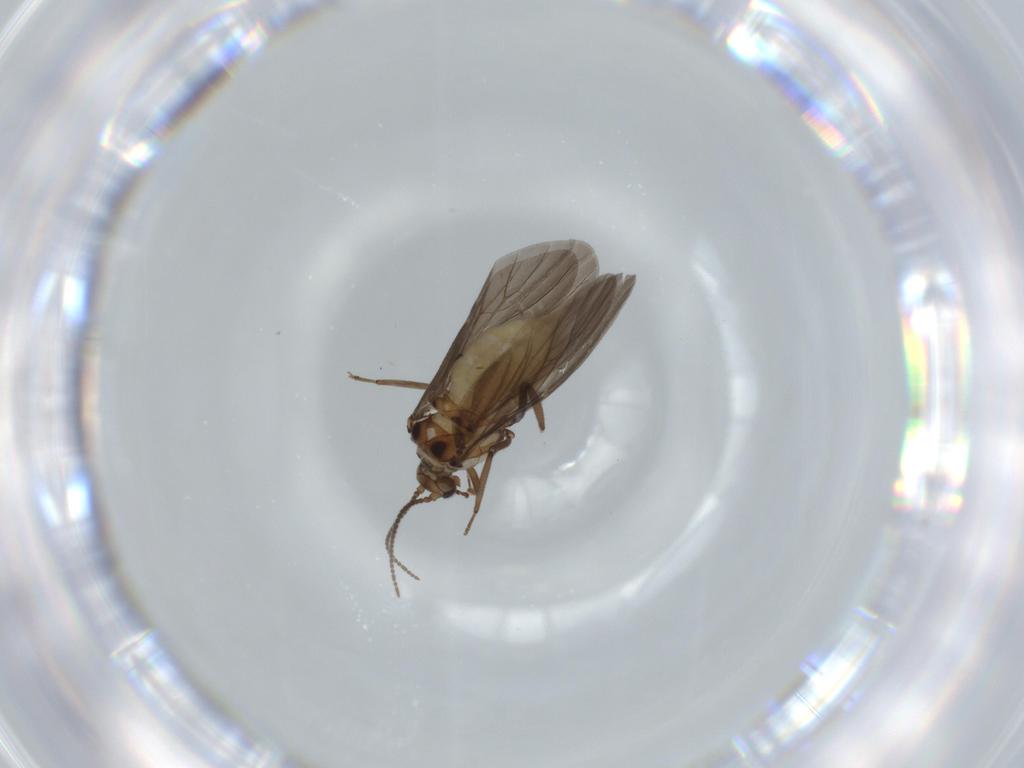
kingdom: Animalia
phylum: Arthropoda
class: Insecta
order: Neuroptera
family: Coniopterygidae
